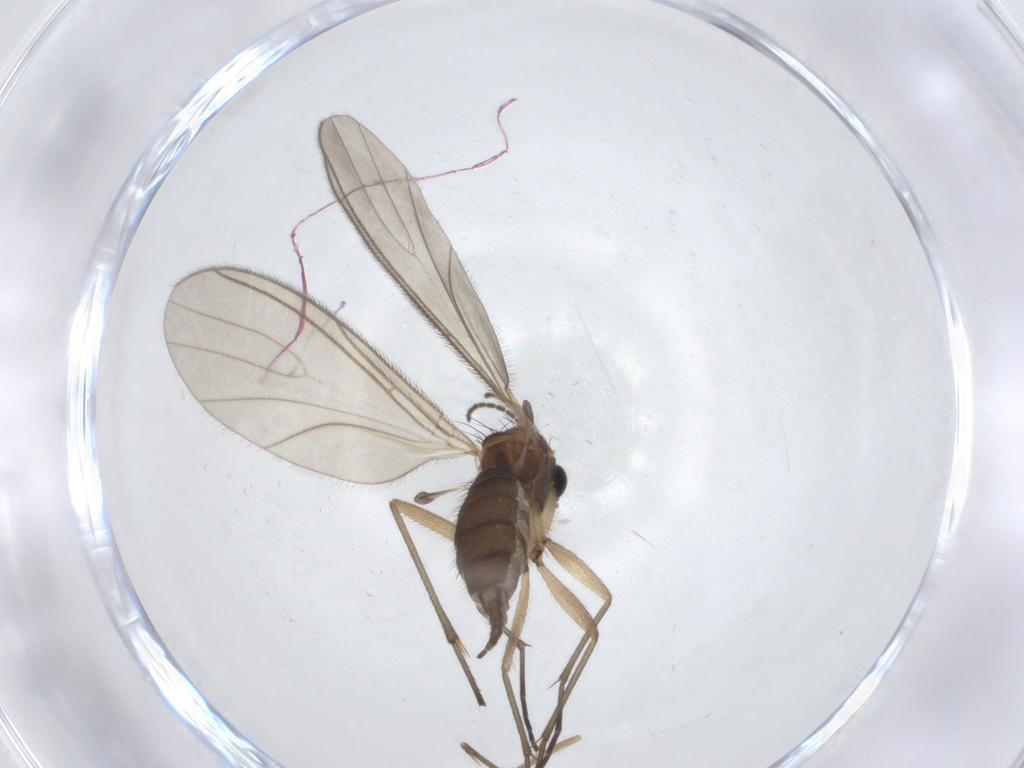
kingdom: Animalia
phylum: Arthropoda
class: Insecta
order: Diptera
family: Sciaridae
